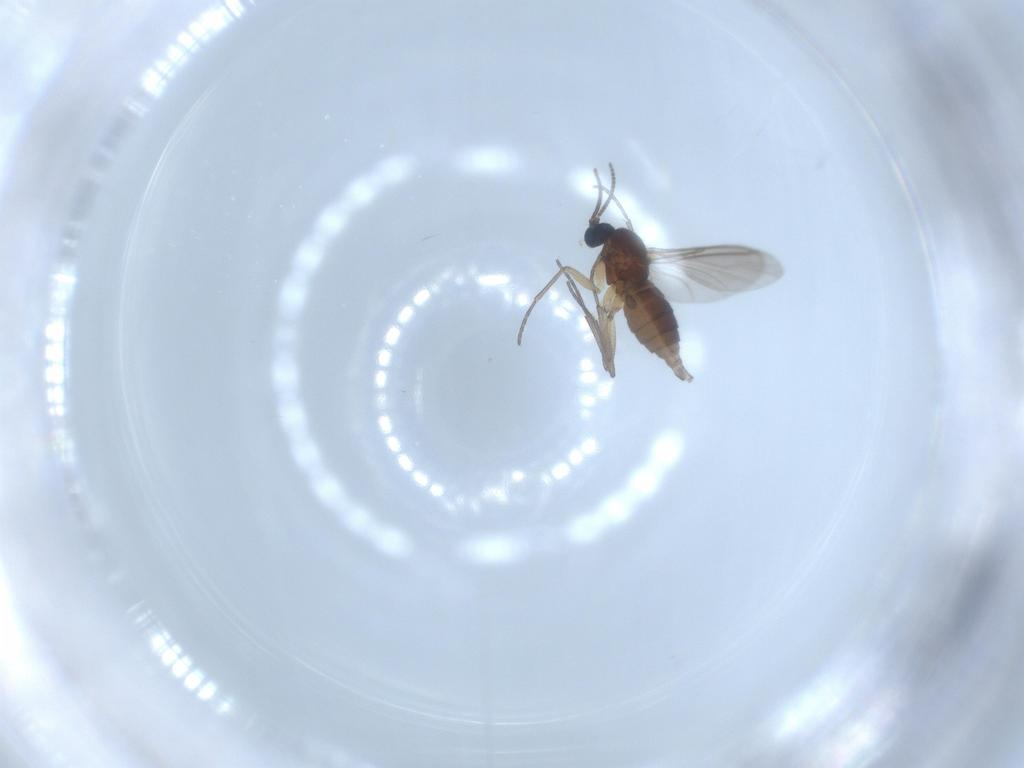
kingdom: Animalia
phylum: Arthropoda
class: Insecta
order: Diptera
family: Sciaridae
